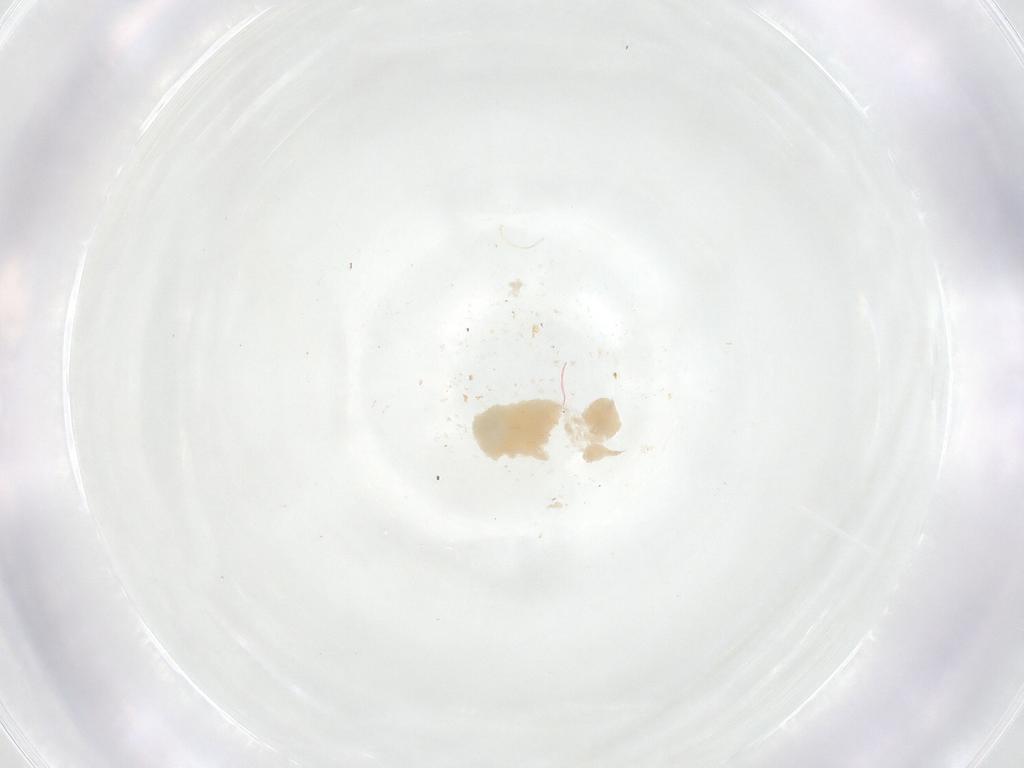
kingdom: Animalia
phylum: Arthropoda
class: Insecta
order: Diptera
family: Fergusoninidae
